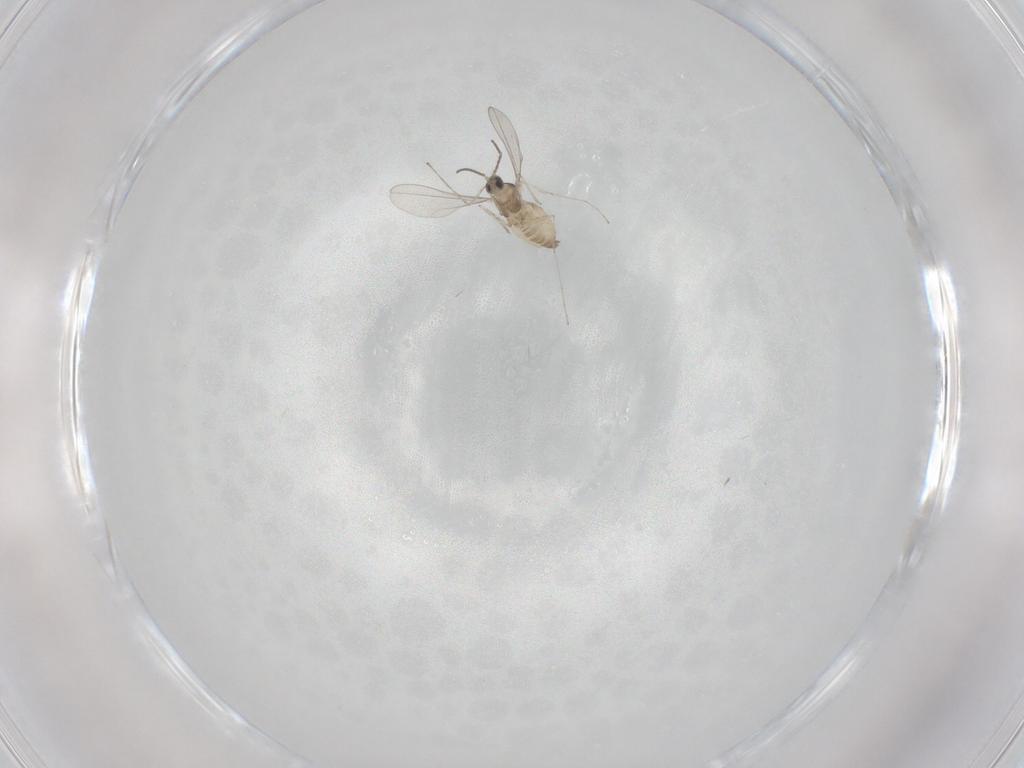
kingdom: Animalia
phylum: Arthropoda
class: Insecta
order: Diptera
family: Cecidomyiidae
